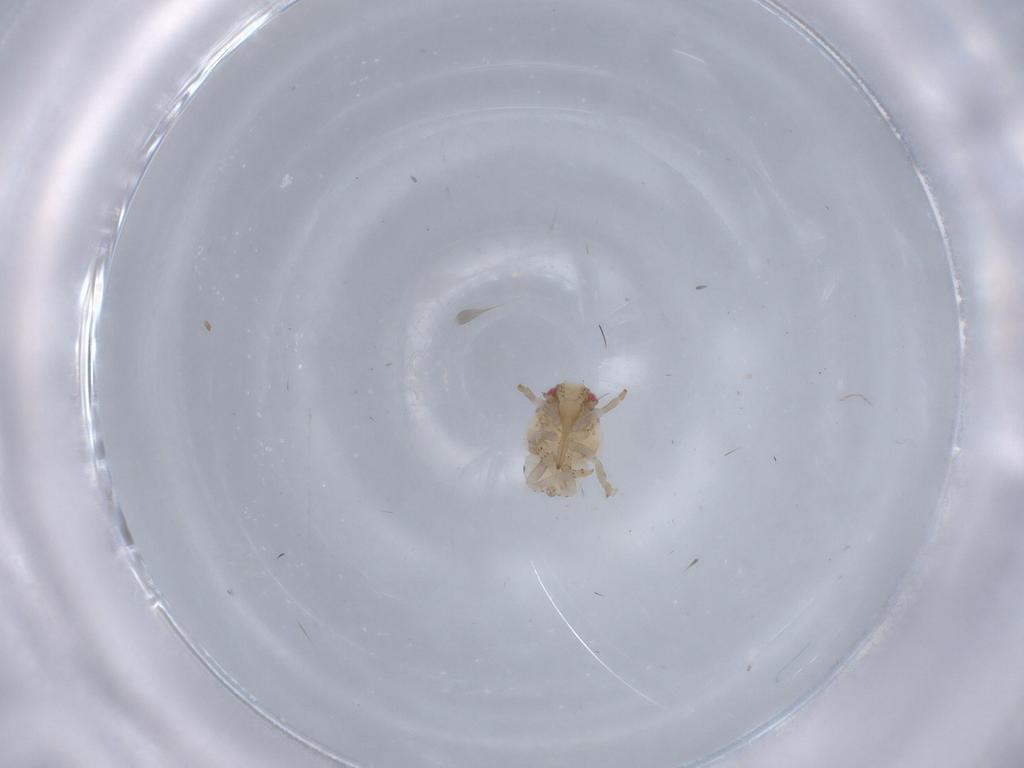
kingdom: Animalia
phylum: Arthropoda
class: Insecta
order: Hemiptera
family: Acanaloniidae
